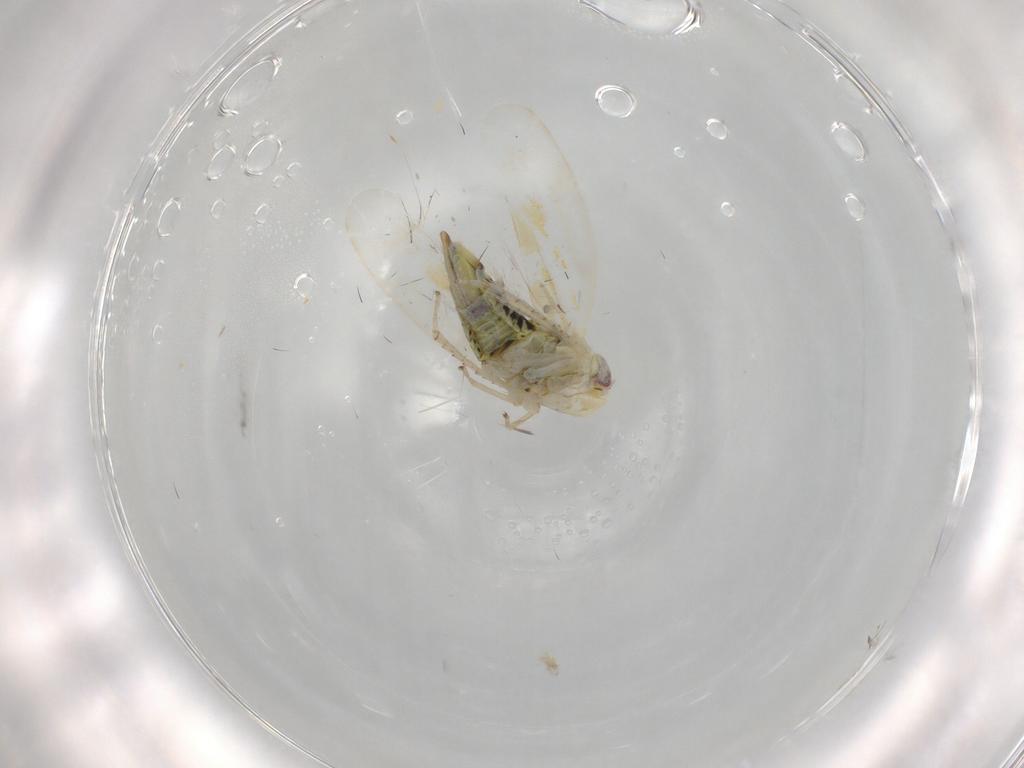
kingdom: Animalia
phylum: Arthropoda
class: Insecta
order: Hemiptera
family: Cicadellidae
